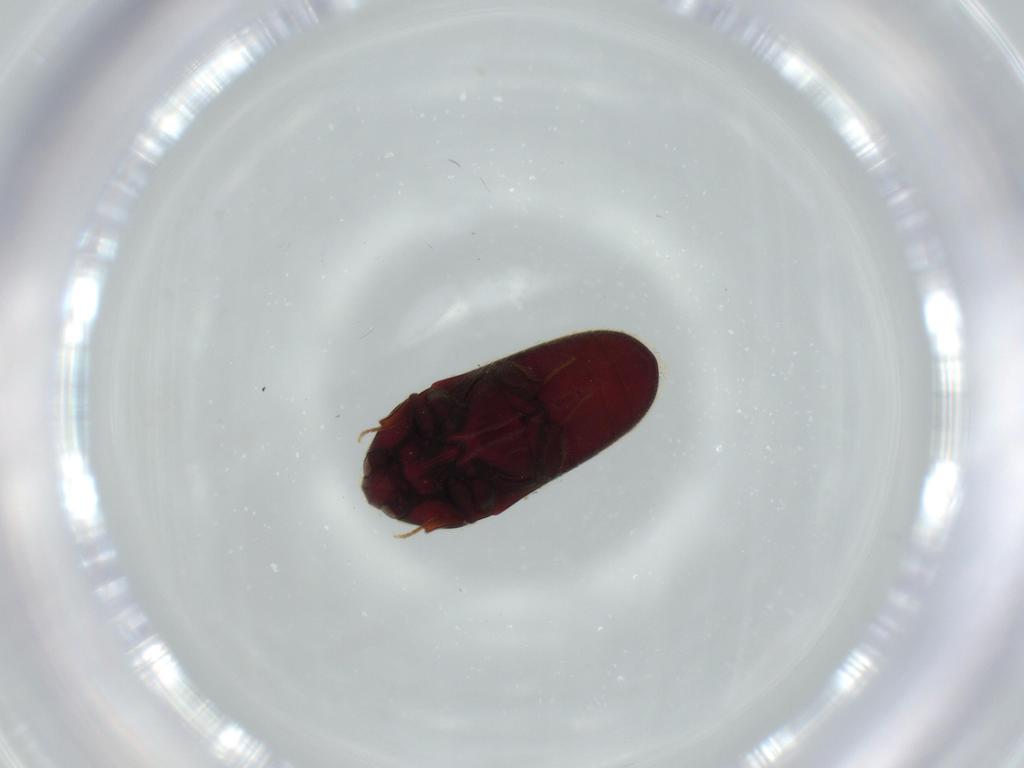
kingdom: Animalia
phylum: Arthropoda
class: Insecta
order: Coleoptera
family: Throscidae
